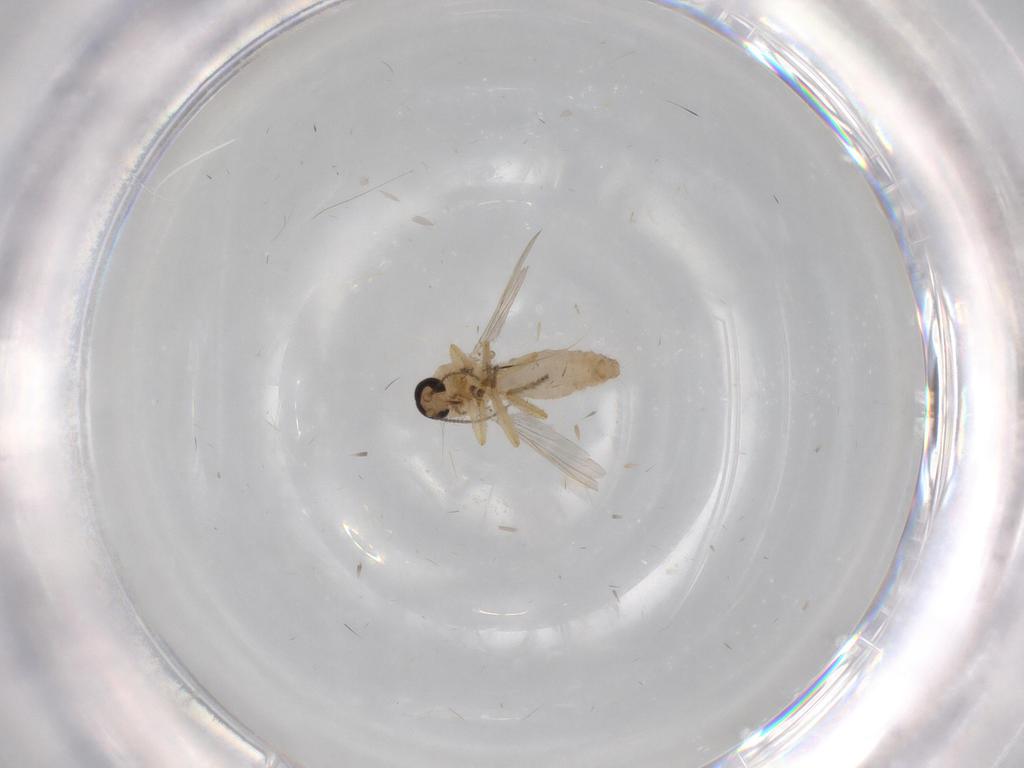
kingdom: Animalia
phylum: Arthropoda
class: Insecta
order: Diptera
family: Ceratopogonidae
